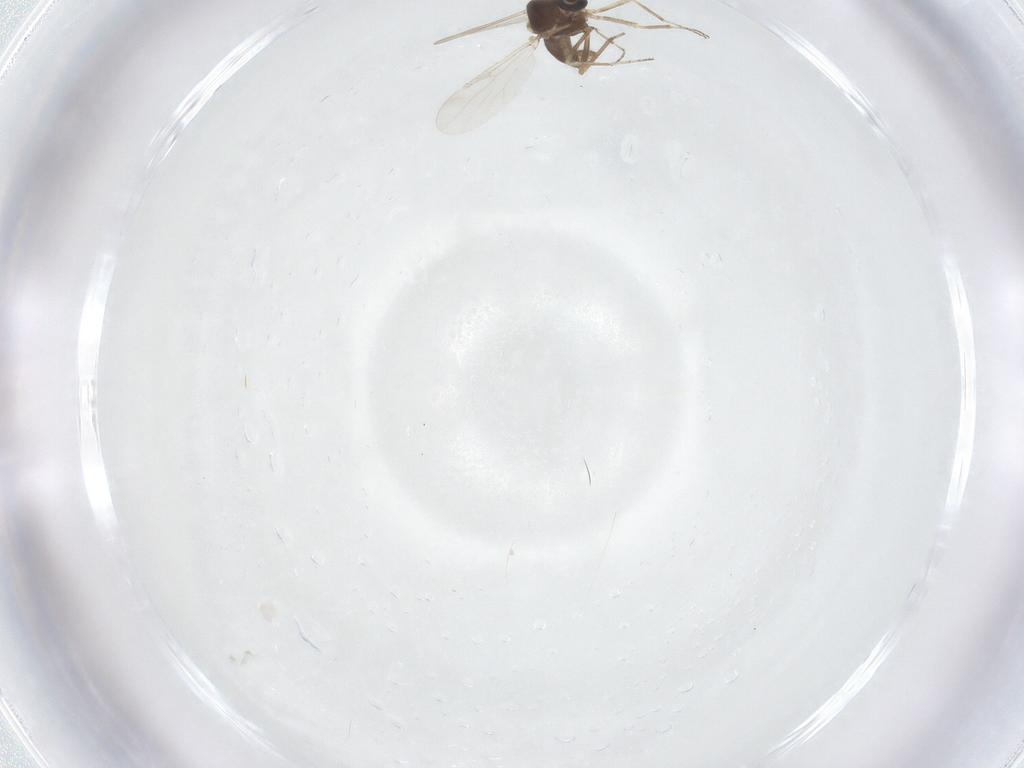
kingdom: Animalia
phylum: Arthropoda
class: Insecta
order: Diptera
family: Ceratopogonidae
